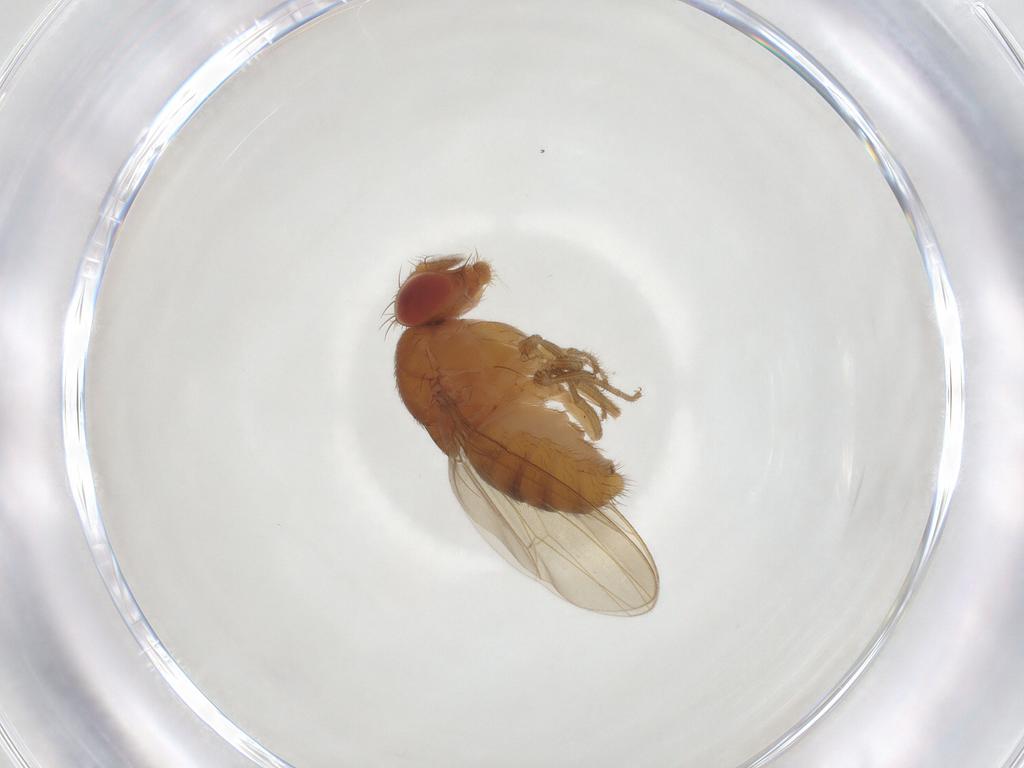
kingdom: Animalia
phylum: Arthropoda
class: Insecta
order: Diptera
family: Drosophilidae
